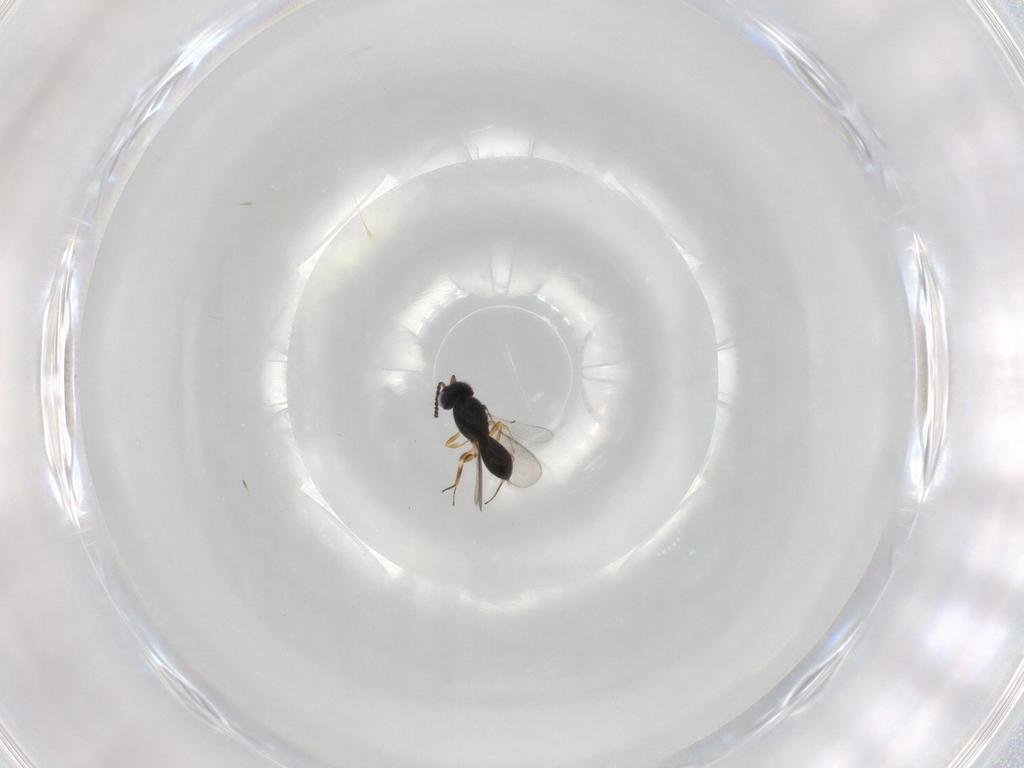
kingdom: Animalia
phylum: Arthropoda
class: Insecta
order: Hymenoptera
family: Scelionidae
